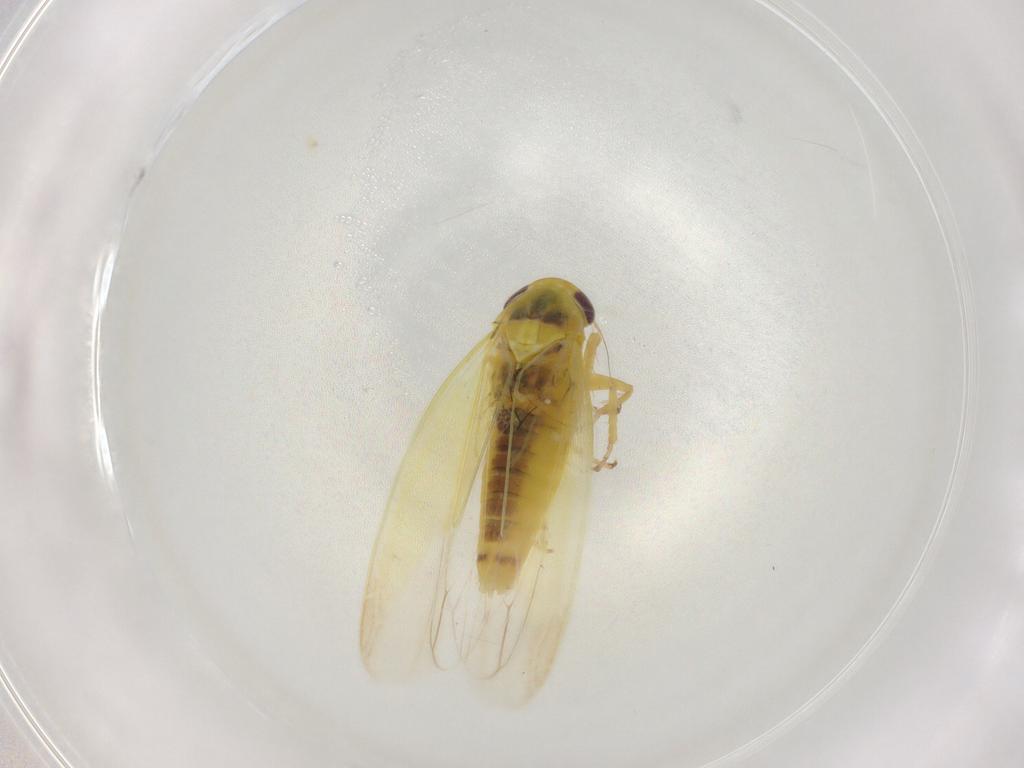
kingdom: Animalia
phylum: Arthropoda
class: Insecta
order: Hemiptera
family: Cicadellidae
